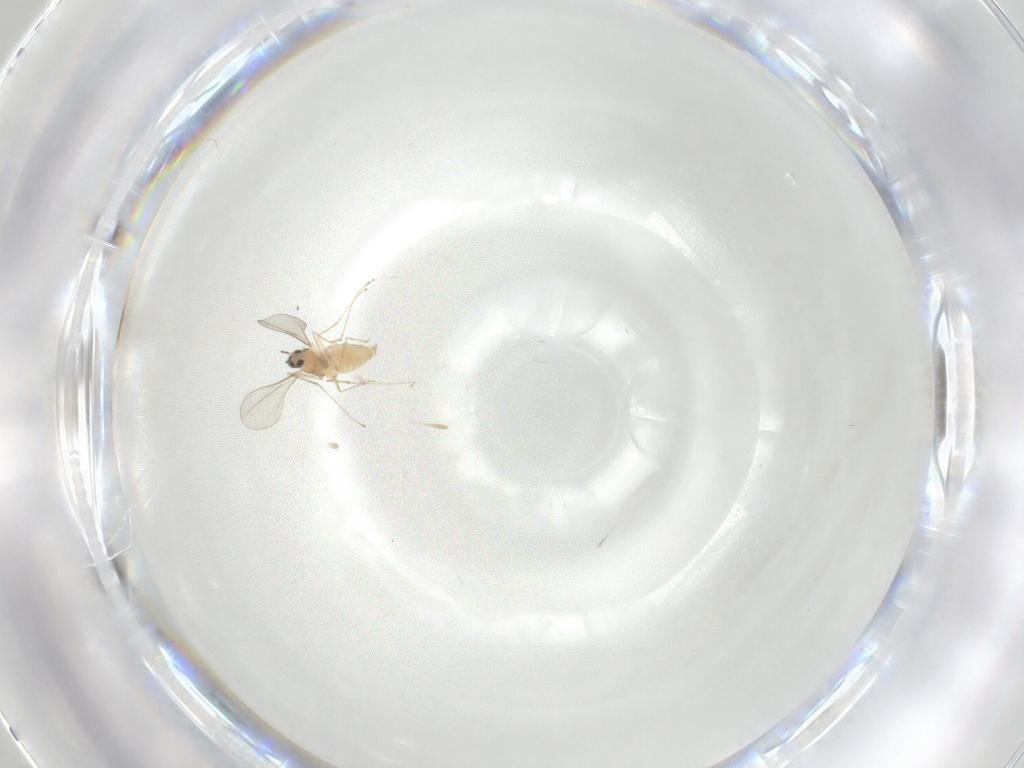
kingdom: Animalia
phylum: Arthropoda
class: Insecta
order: Diptera
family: Cecidomyiidae
